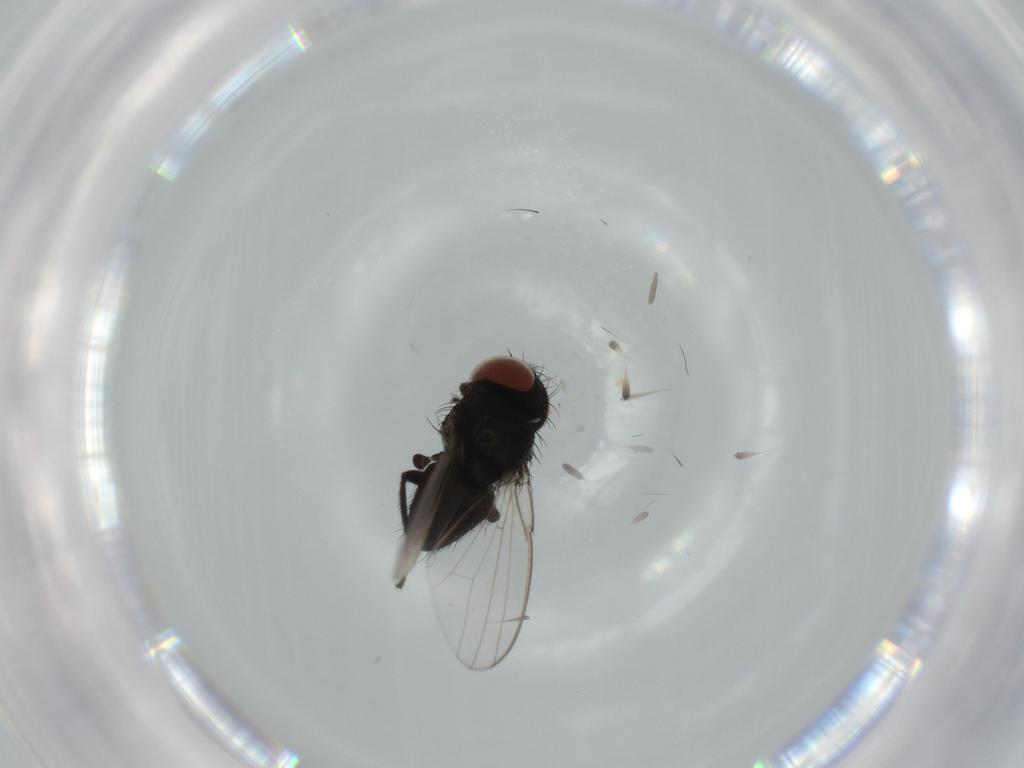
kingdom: Animalia
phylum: Arthropoda
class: Insecta
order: Diptera
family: Milichiidae
